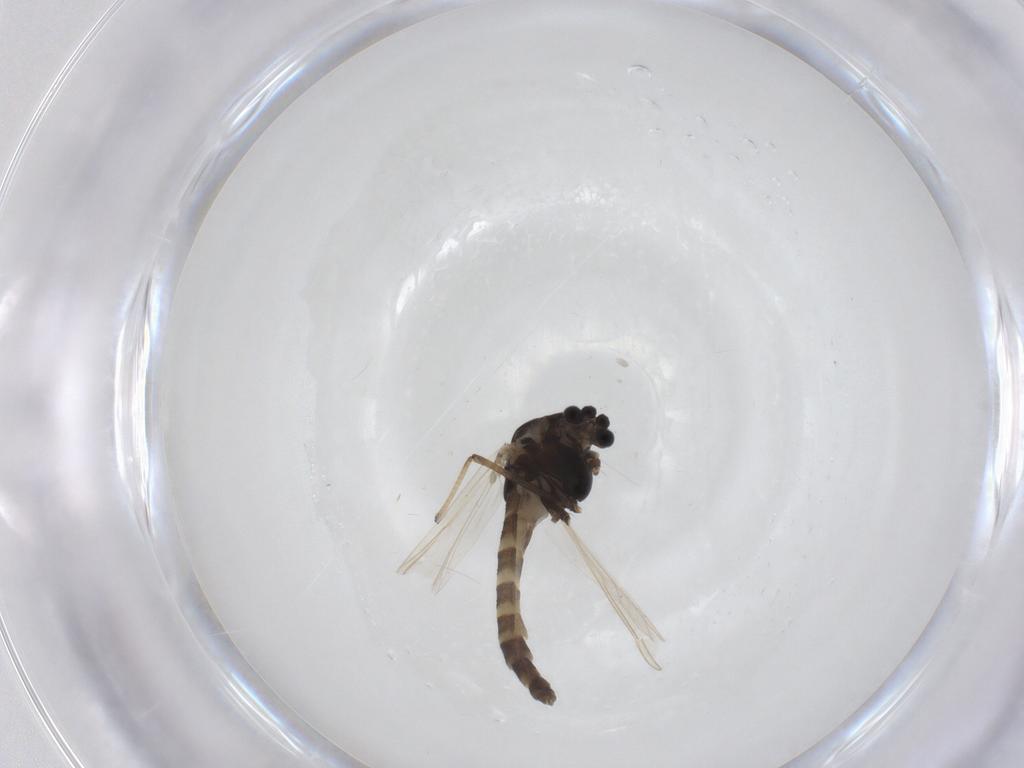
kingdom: Animalia
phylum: Arthropoda
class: Insecta
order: Diptera
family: Chironomidae
